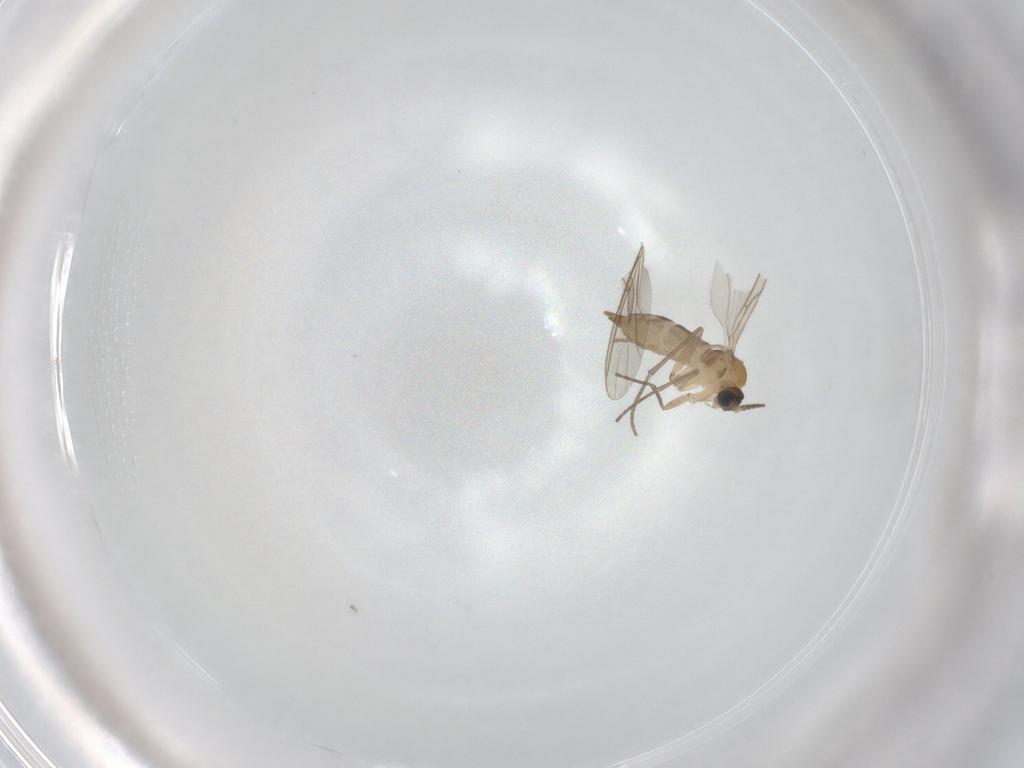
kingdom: Animalia
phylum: Arthropoda
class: Insecta
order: Diptera
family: Sciaridae
